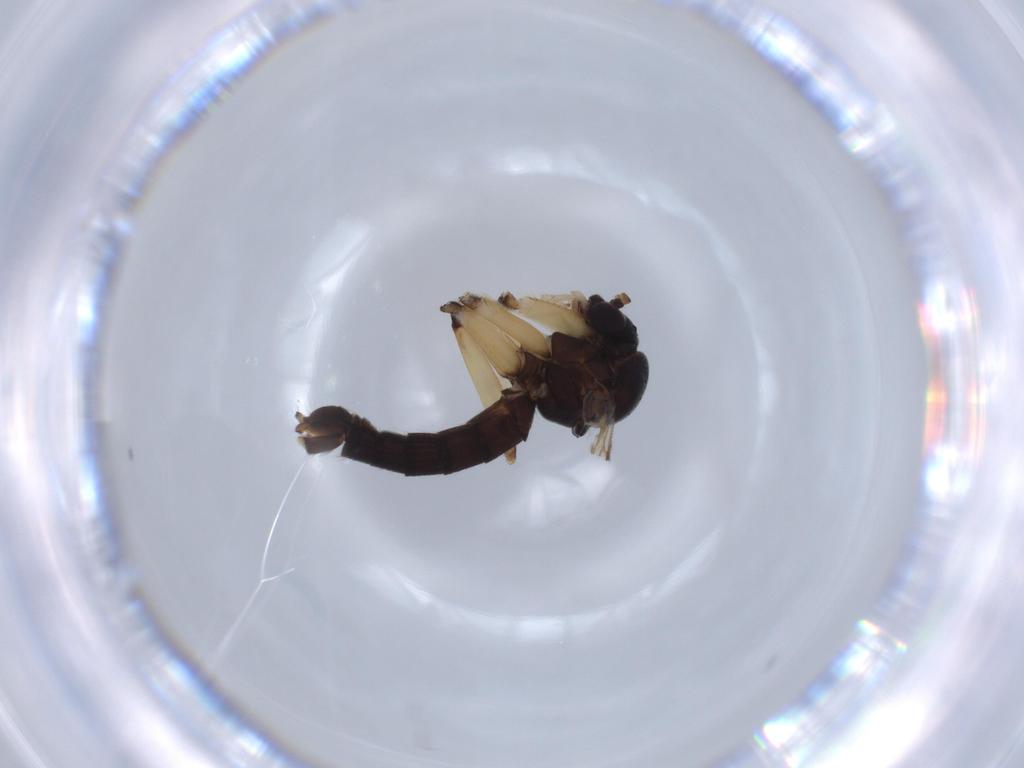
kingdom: Animalia
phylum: Arthropoda
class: Insecta
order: Diptera
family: Mycetophilidae
